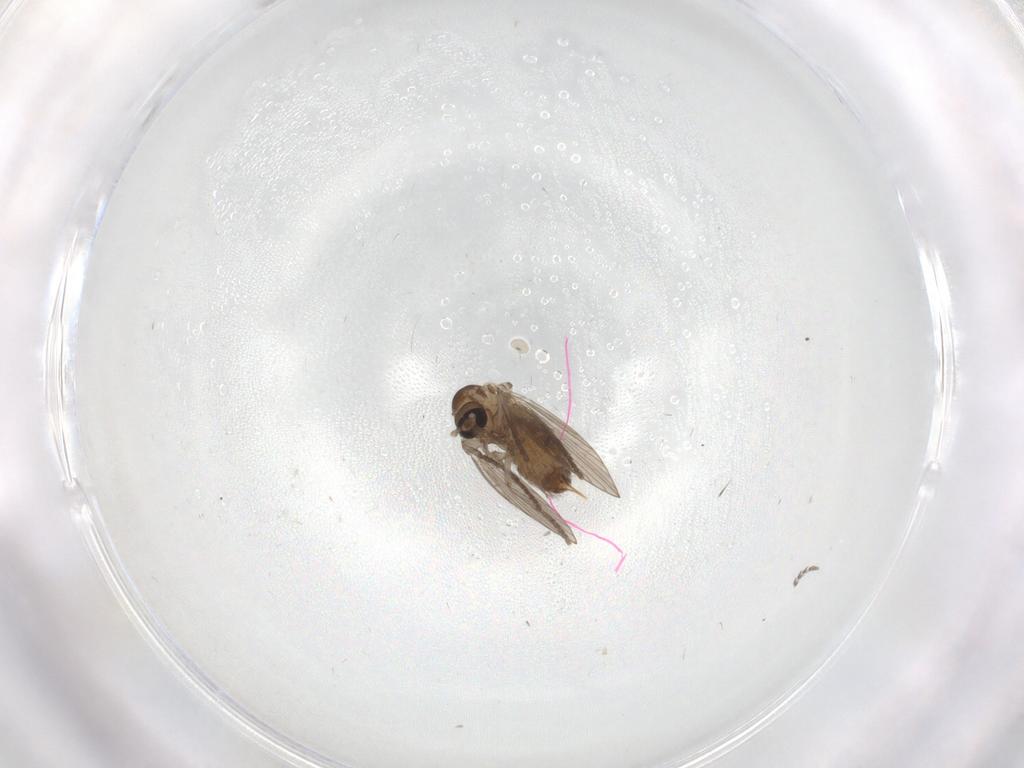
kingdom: Animalia
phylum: Arthropoda
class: Insecta
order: Diptera
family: Psychodidae
